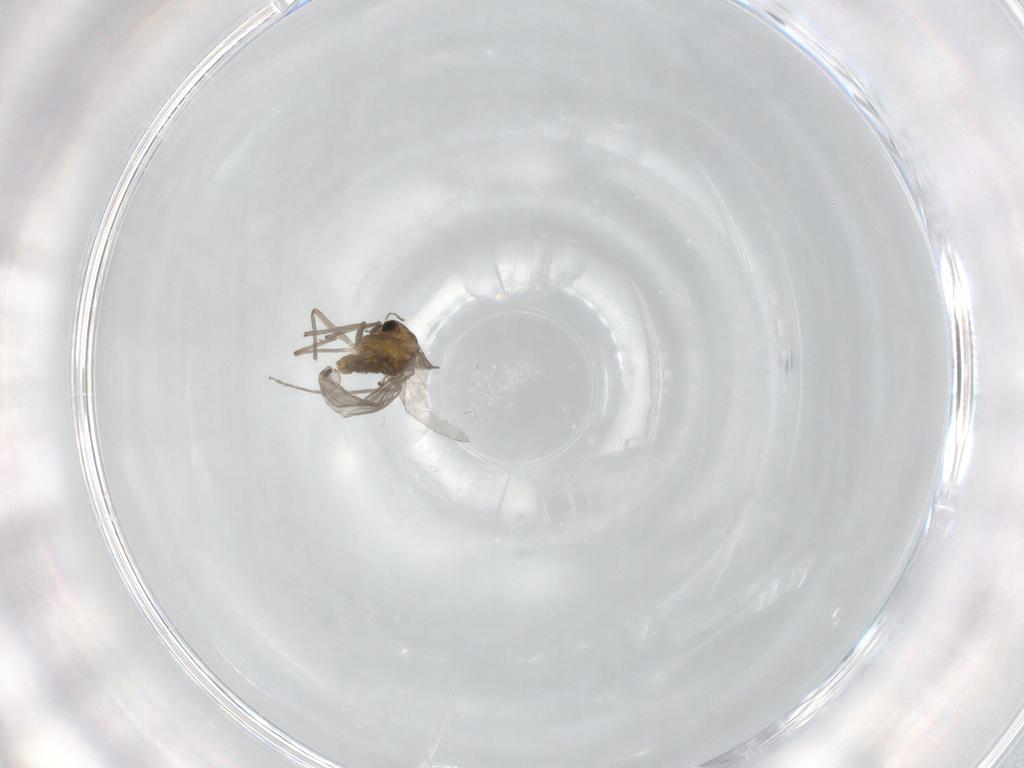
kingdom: Animalia
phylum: Arthropoda
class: Insecta
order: Diptera
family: Chironomidae
